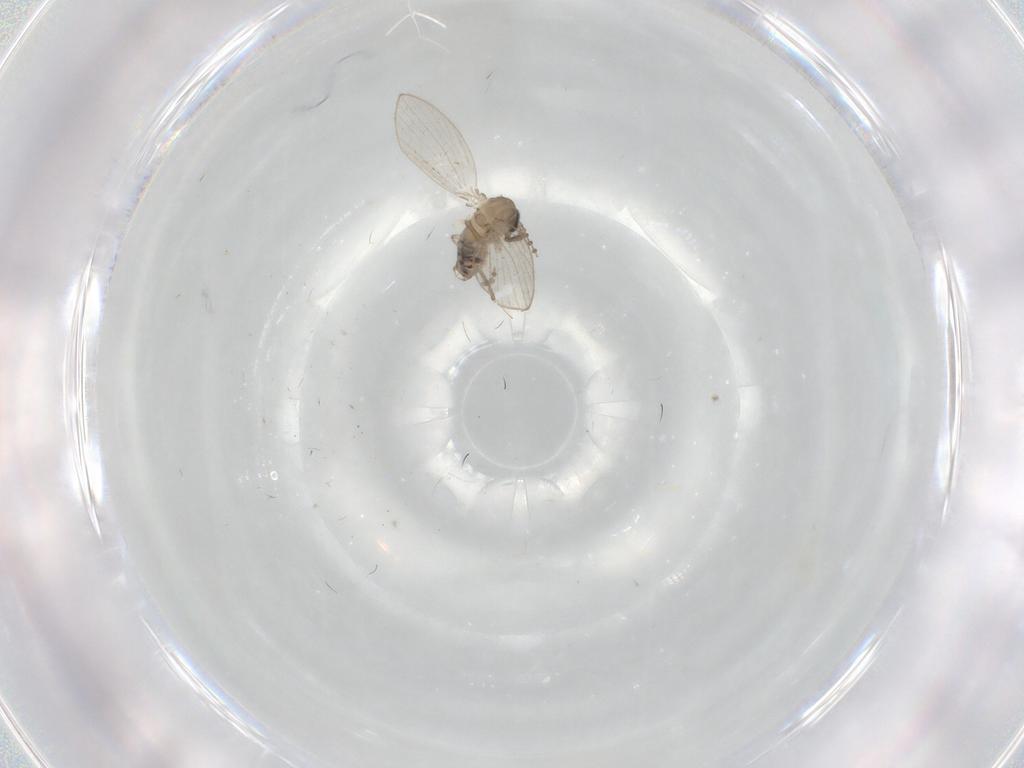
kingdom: Animalia
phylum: Arthropoda
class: Insecta
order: Diptera
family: Psychodidae
